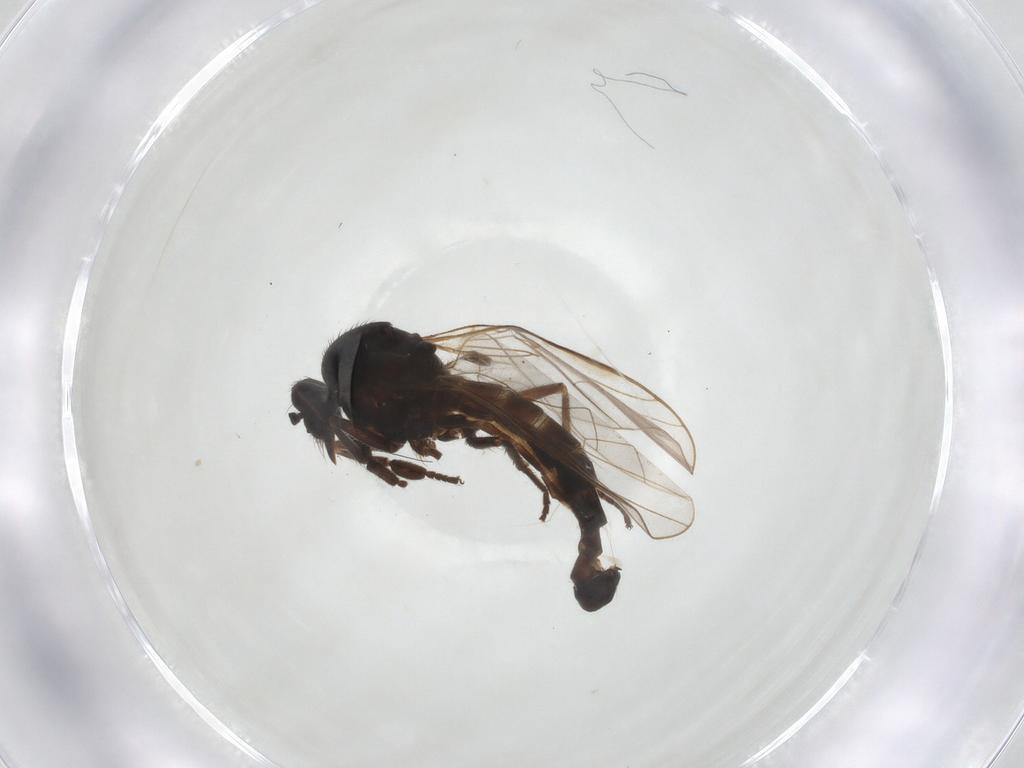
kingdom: Animalia
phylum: Arthropoda
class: Insecta
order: Diptera
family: Empididae
